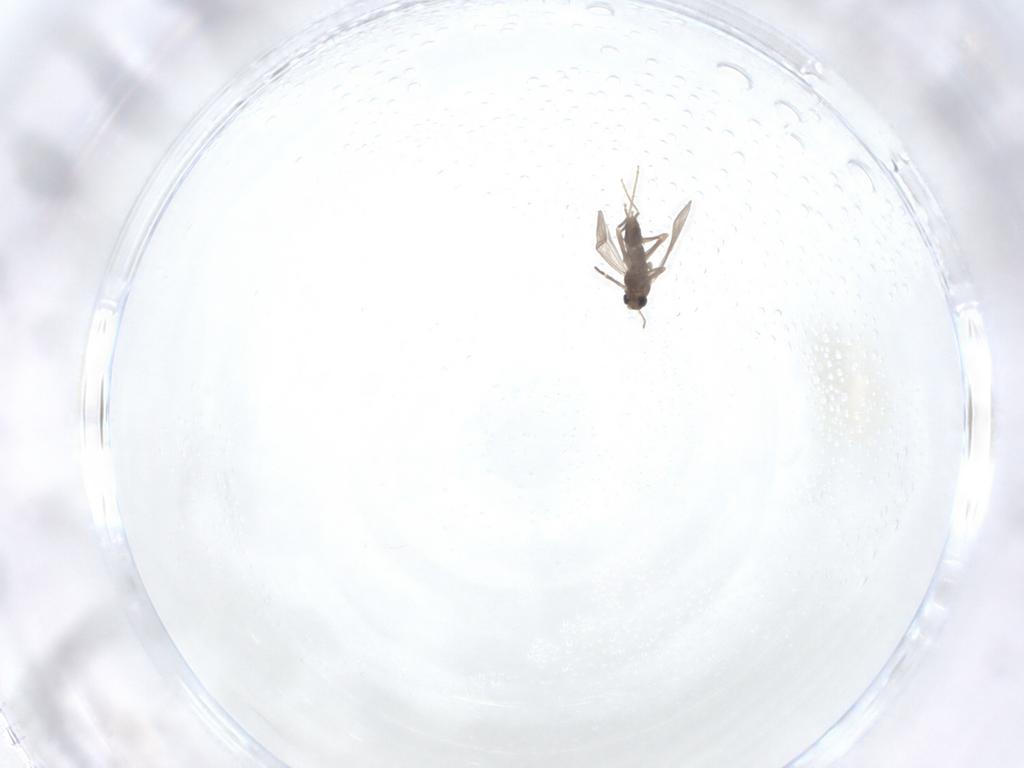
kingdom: Animalia
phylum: Arthropoda
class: Insecta
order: Diptera
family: Chironomidae
